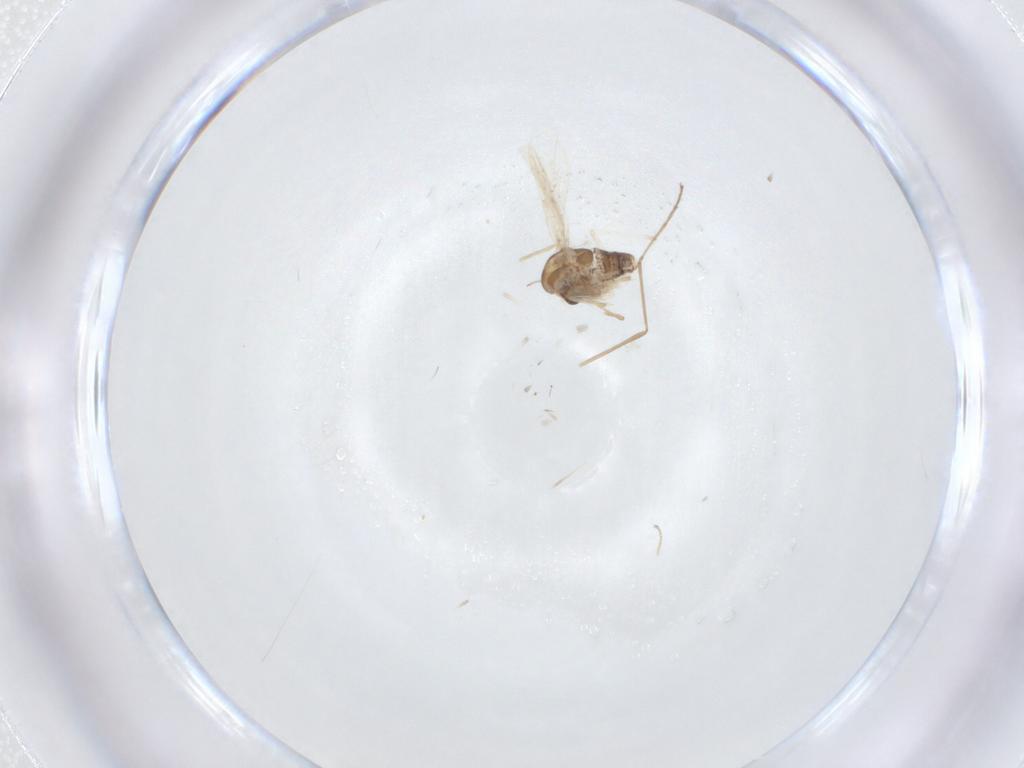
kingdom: Animalia
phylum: Arthropoda
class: Insecta
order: Diptera
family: Cecidomyiidae
